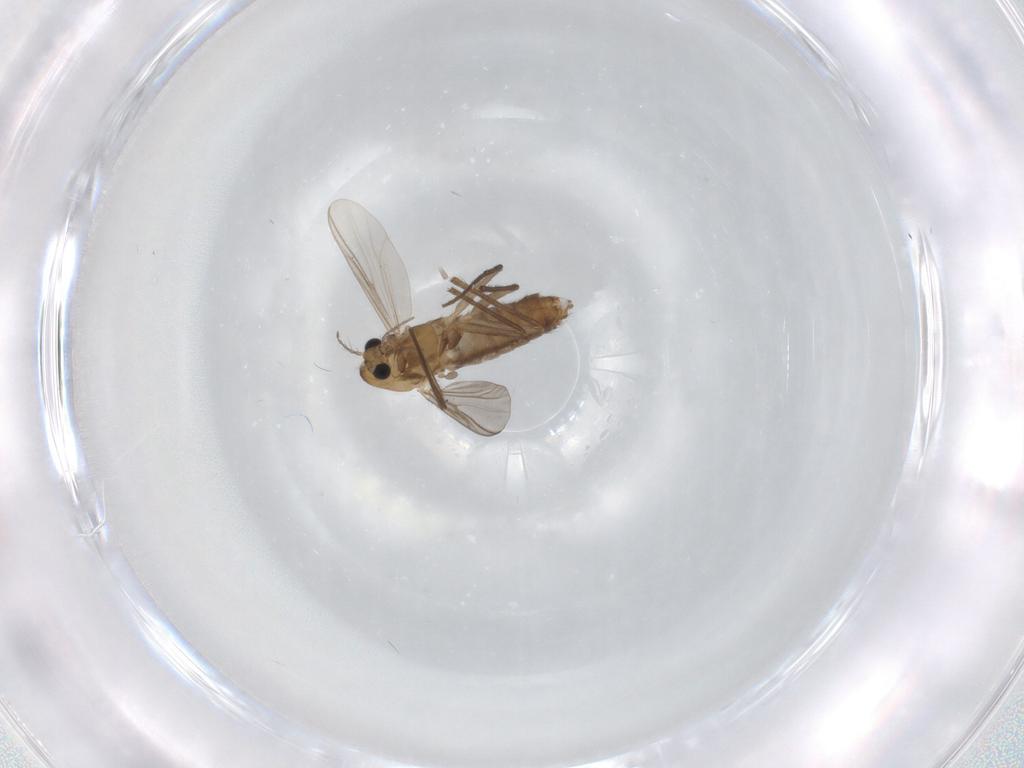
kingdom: Animalia
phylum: Arthropoda
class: Insecta
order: Diptera
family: Chironomidae
